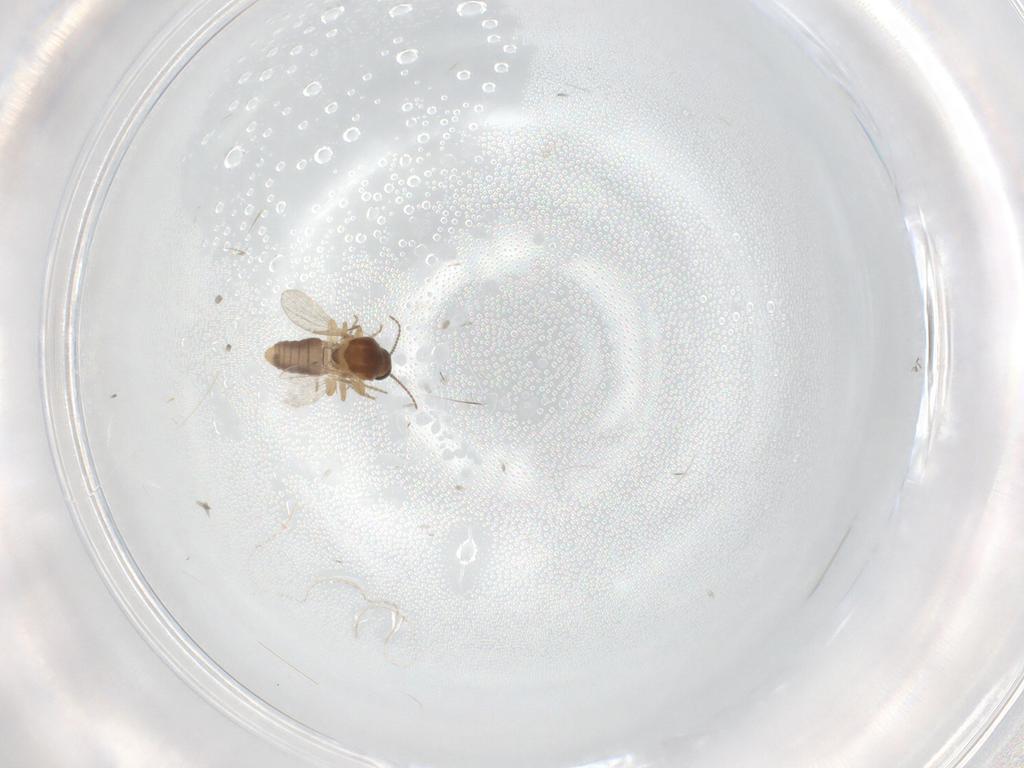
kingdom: Animalia
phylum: Arthropoda
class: Insecta
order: Diptera
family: Ceratopogonidae
